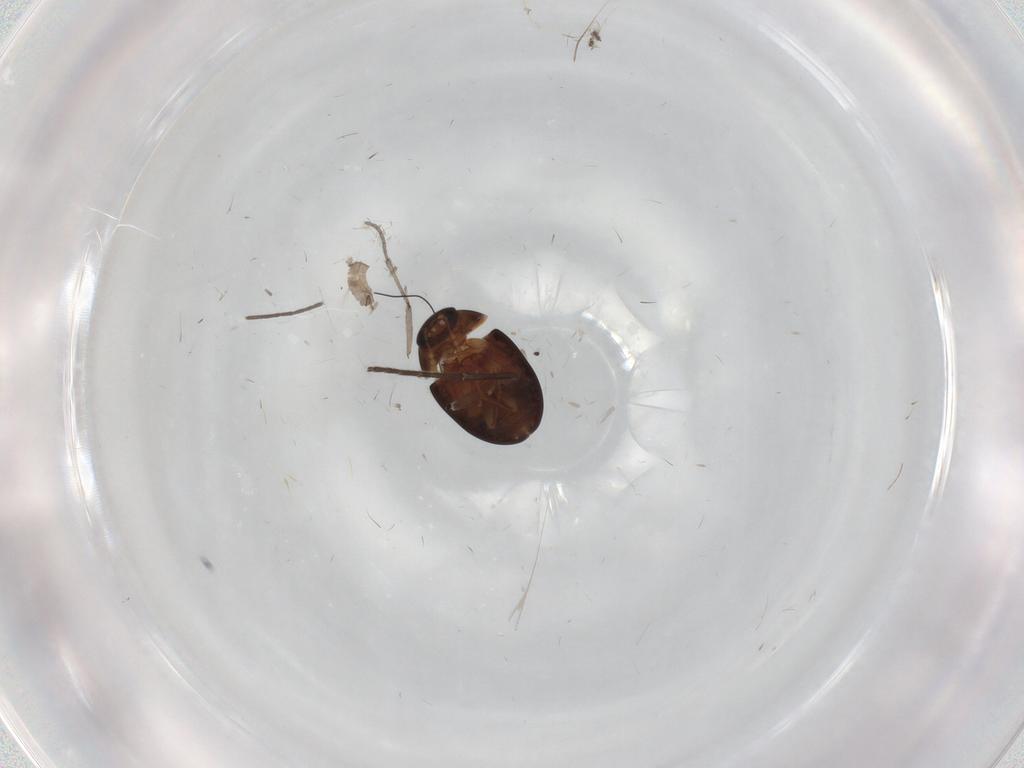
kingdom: Animalia
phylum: Arthropoda
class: Insecta
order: Coleoptera
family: Phalacridae
